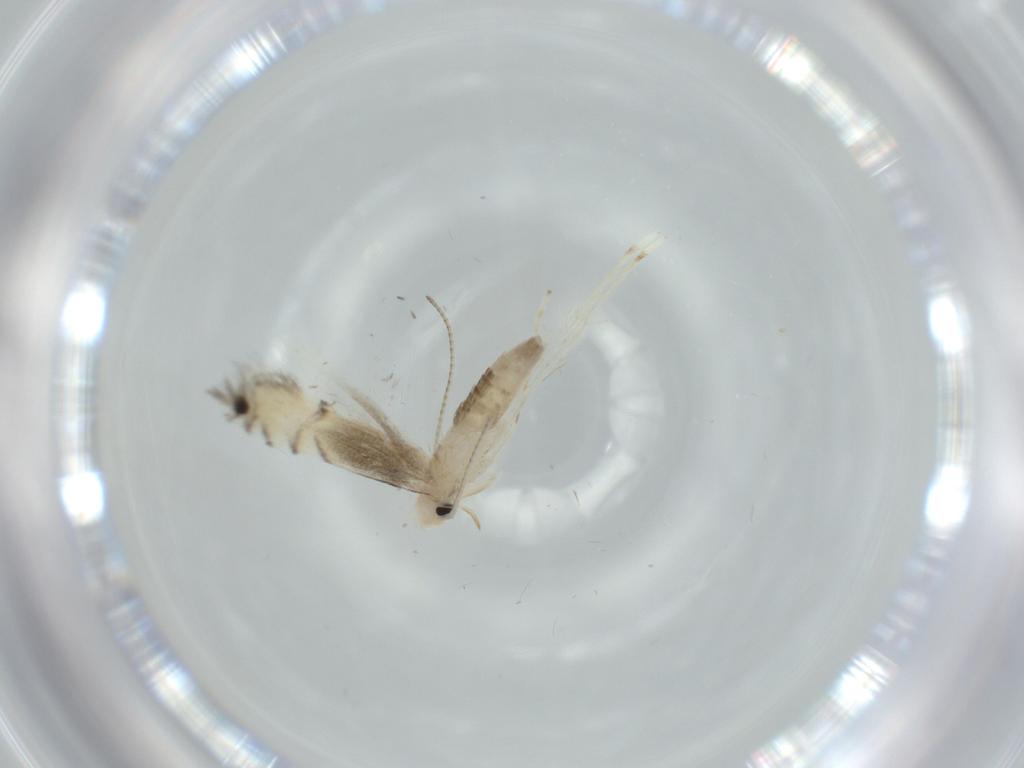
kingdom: Animalia
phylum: Arthropoda
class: Insecta
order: Lepidoptera
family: Gracillariidae
